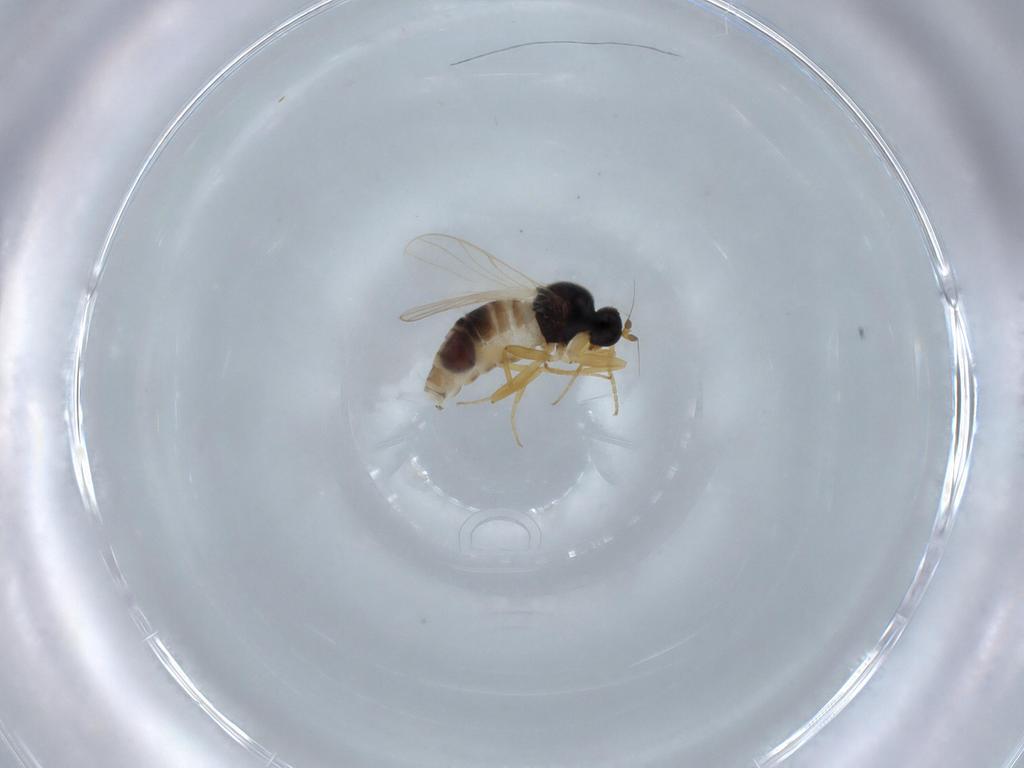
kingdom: Animalia
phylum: Arthropoda
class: Insecta
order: Diptera
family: Hybotidae
